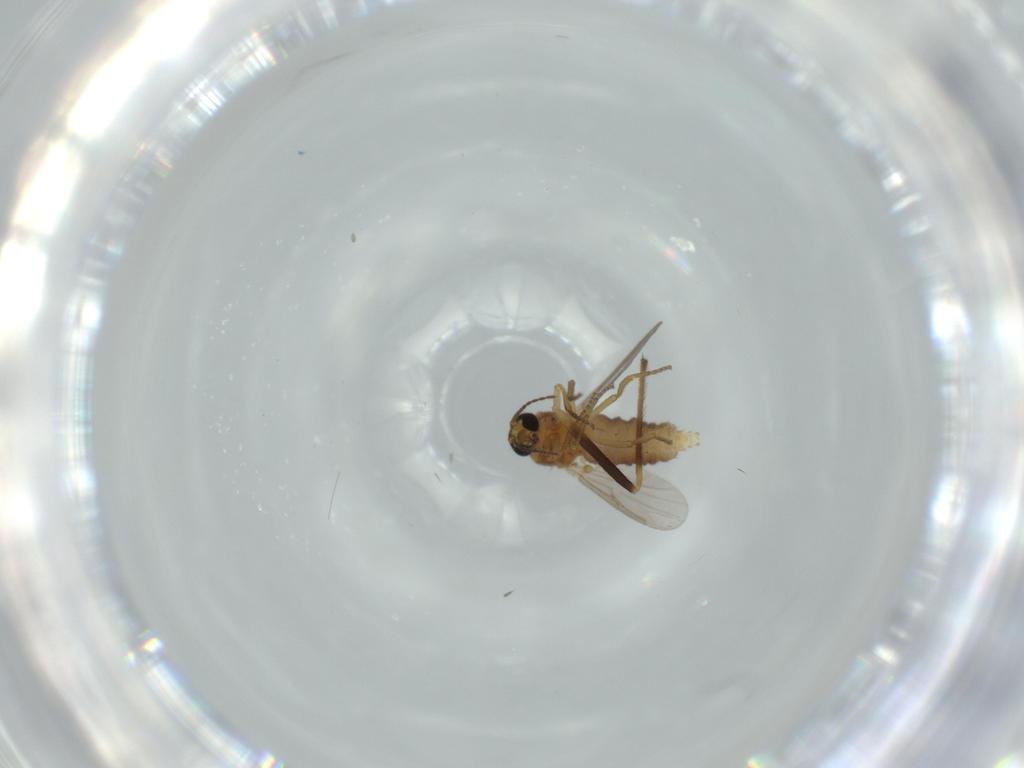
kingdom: Animalia
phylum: Arthropoda
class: Insecta
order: Diptera
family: Ceratopogonidae
